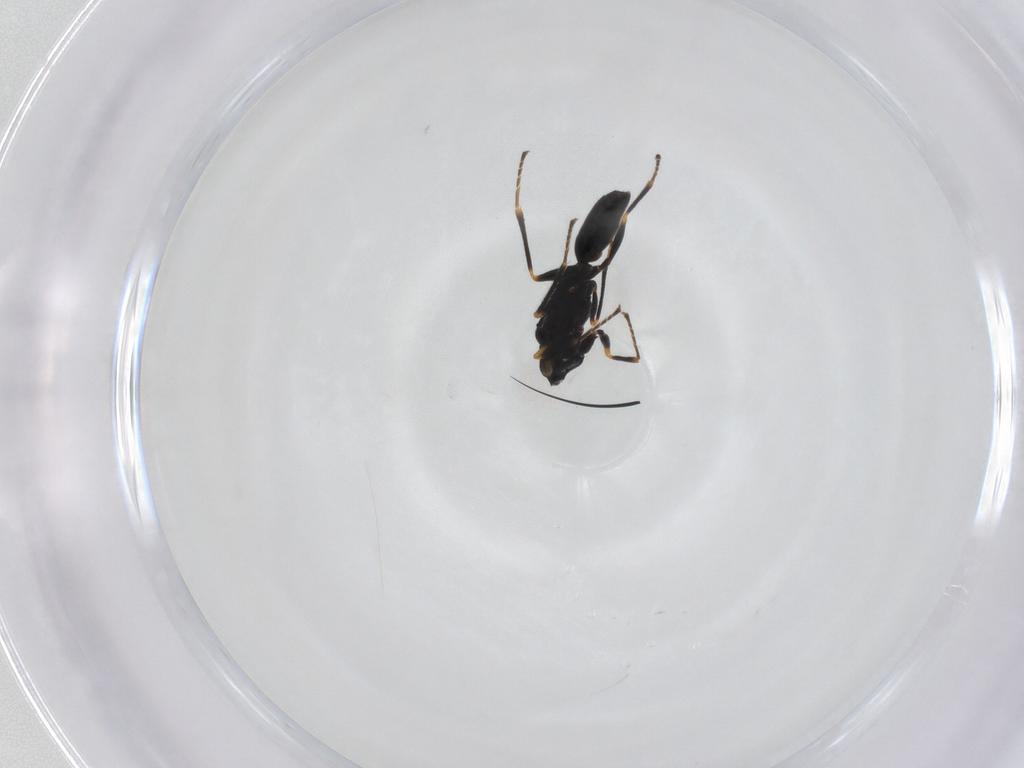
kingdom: Animalia
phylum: Arthropoda
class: Insecta
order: Hymenoptera
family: Eurytomidae
